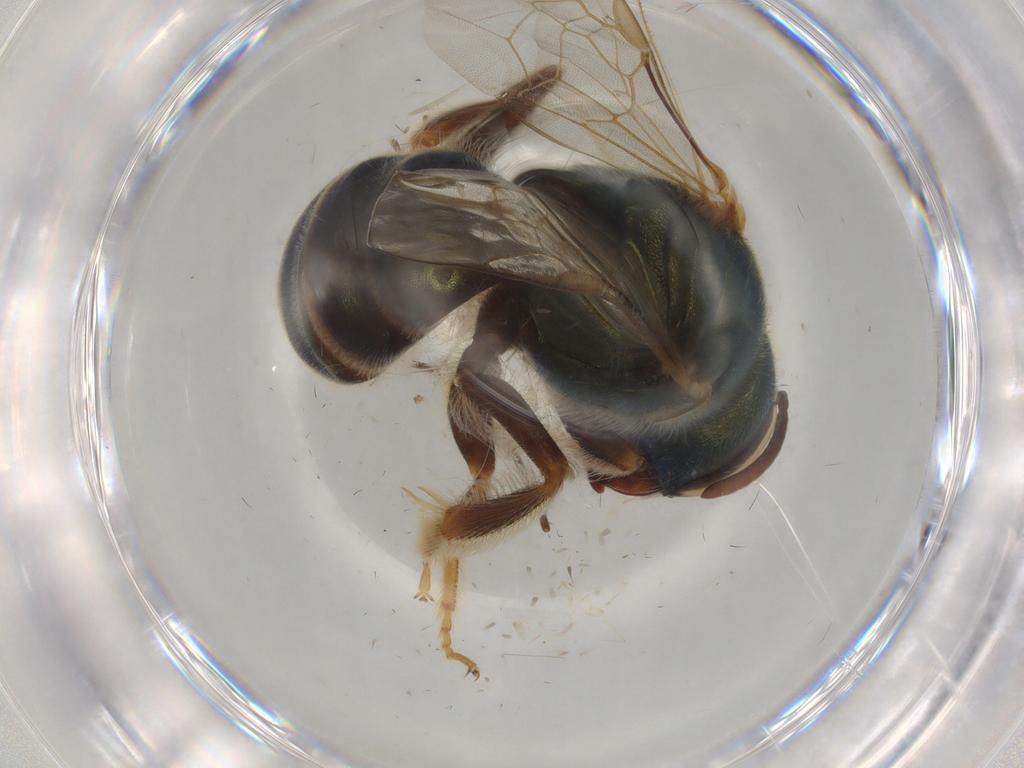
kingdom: Animalia
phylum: Arthropoda
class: Insecta
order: Hymenoptera
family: Halictidae
